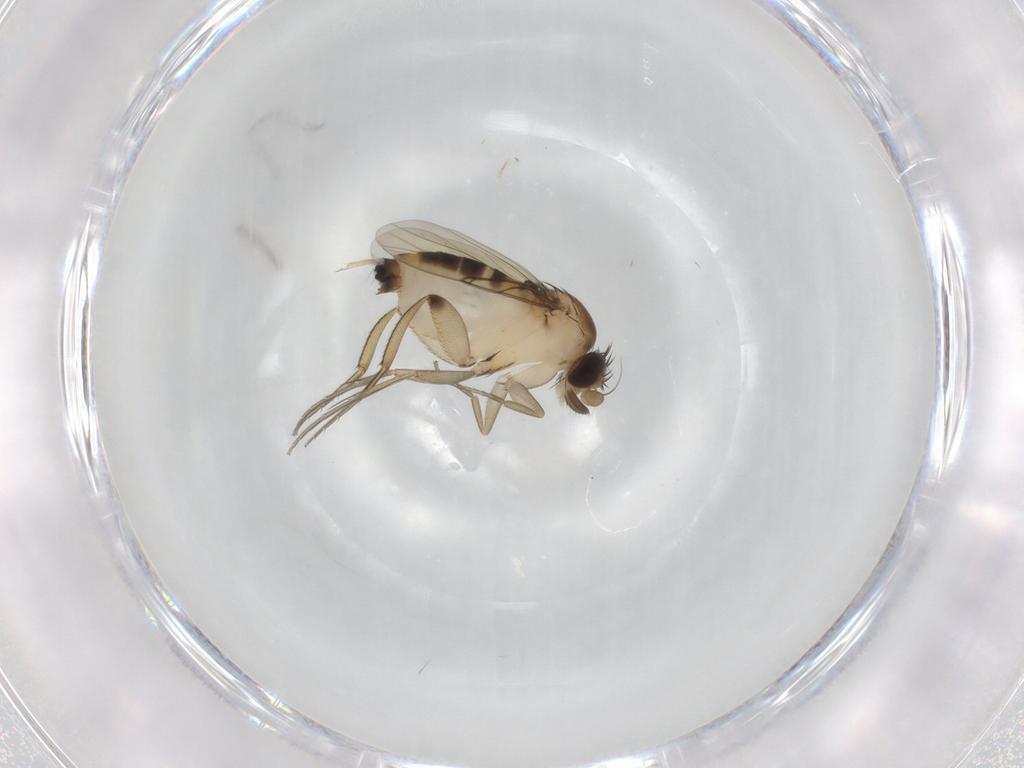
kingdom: Animalia
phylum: Arthropoda
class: Insecta
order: Diptera
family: Phoridae
